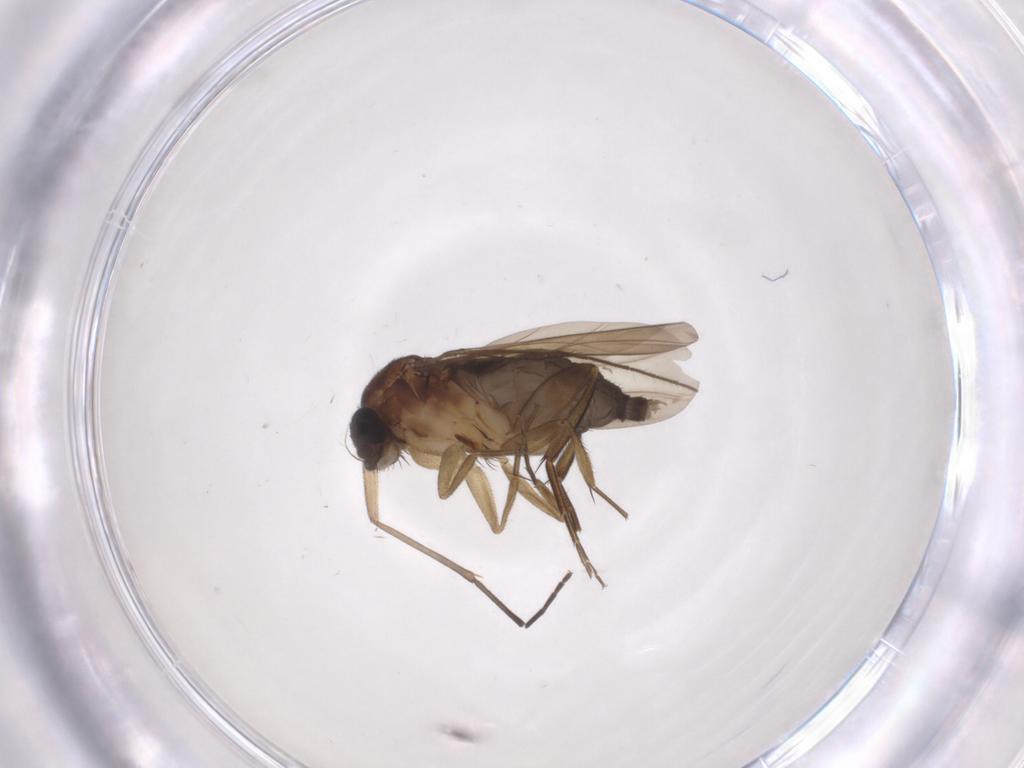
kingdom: Animalia
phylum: Arthropoda
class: Insecta
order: Diptera
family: Phoridae
